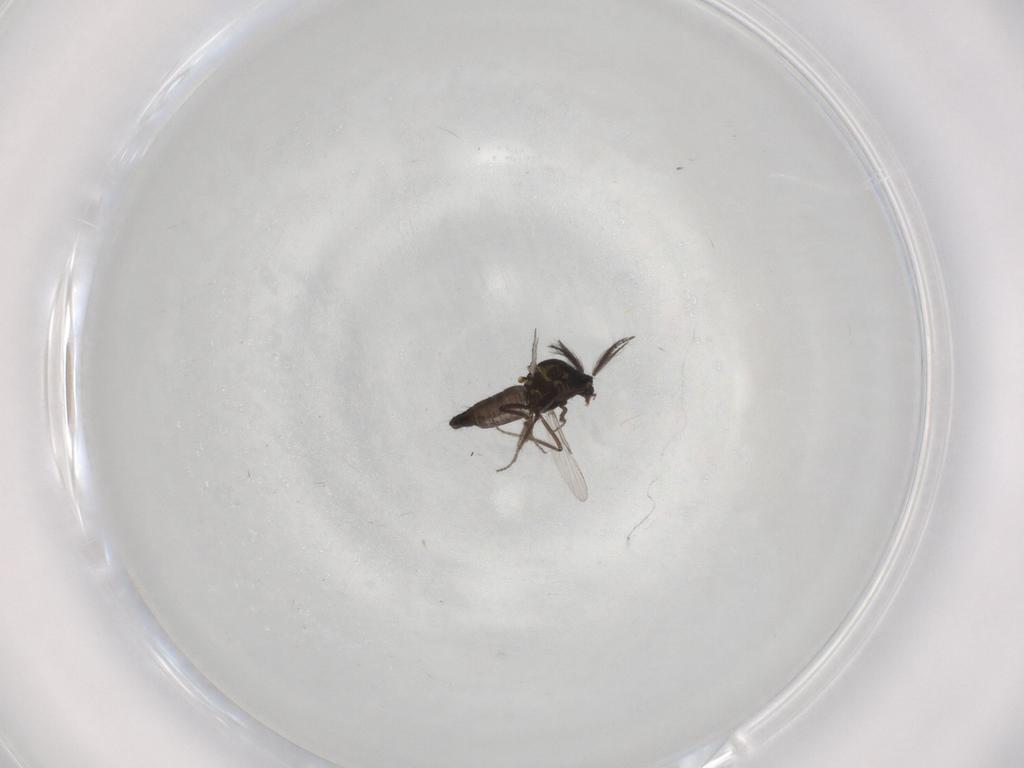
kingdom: Animalia
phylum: Arthropoda
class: Insecta
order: Diptera
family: Ceratopogonidae
